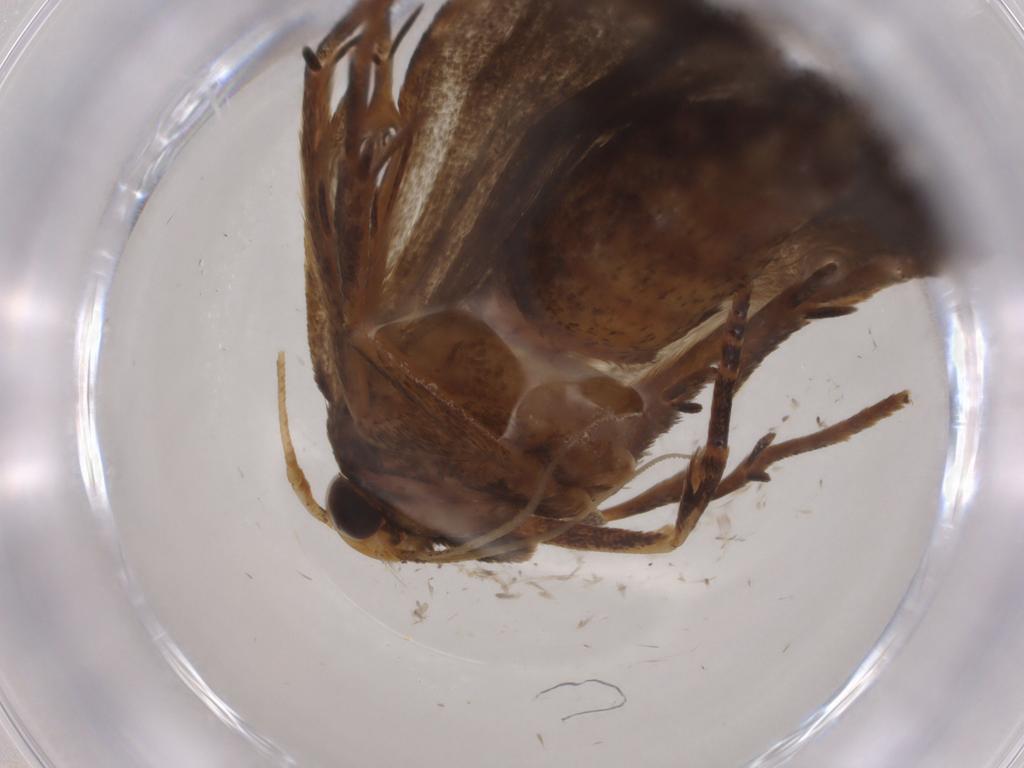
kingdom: Animalia
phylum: Arthropoda
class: Insecta
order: Lepidoptera
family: Autostichidae
